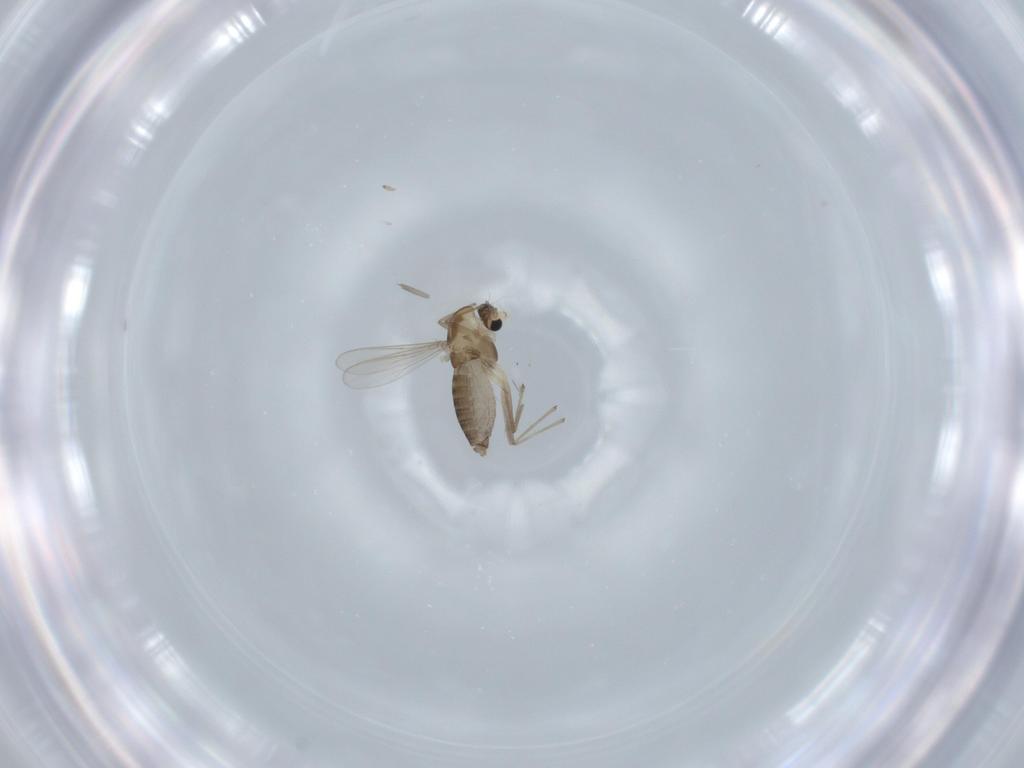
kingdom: Animalia
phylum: Arthropoda
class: Insecta
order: Diptera
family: Chironomidae
